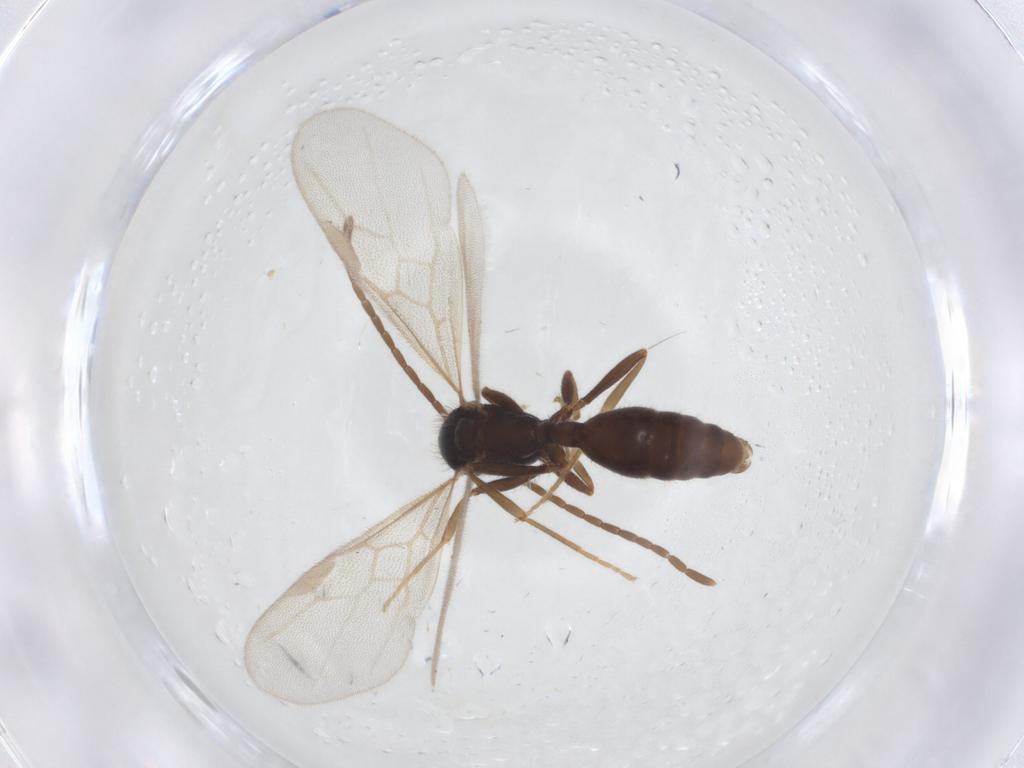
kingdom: Animalia
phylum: Arthropoda
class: Insecta
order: Hymenoptera
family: Formicidae
